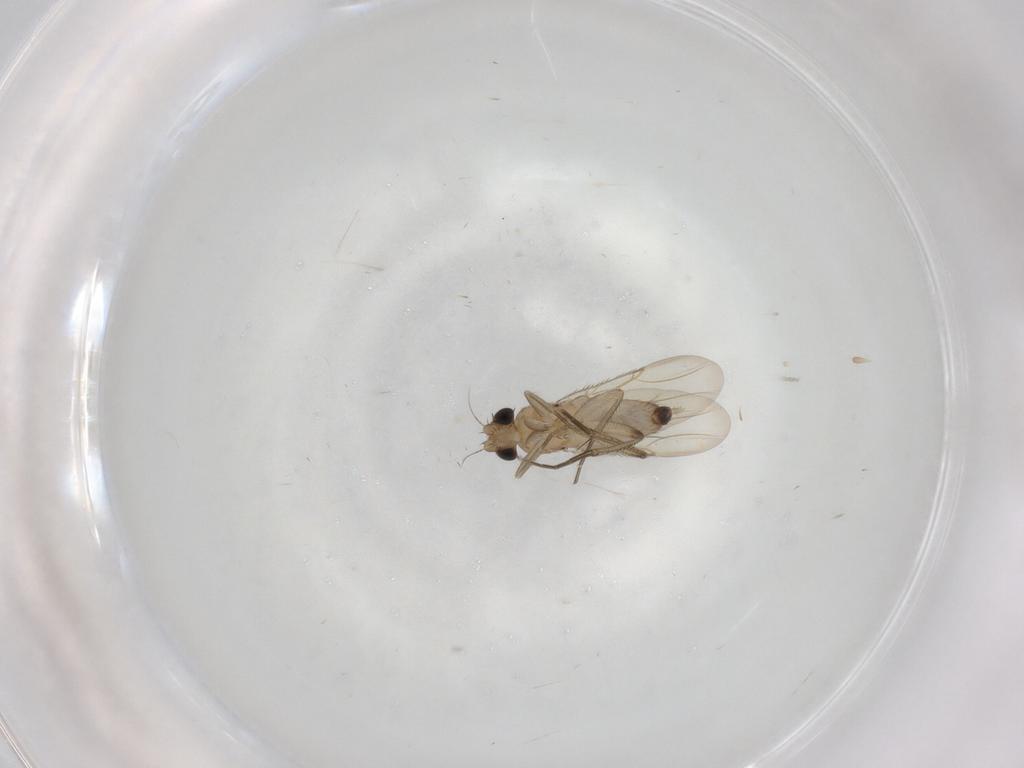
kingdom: Animalia
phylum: Arthropoda
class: Insecta
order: Diptera
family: Phoridae
